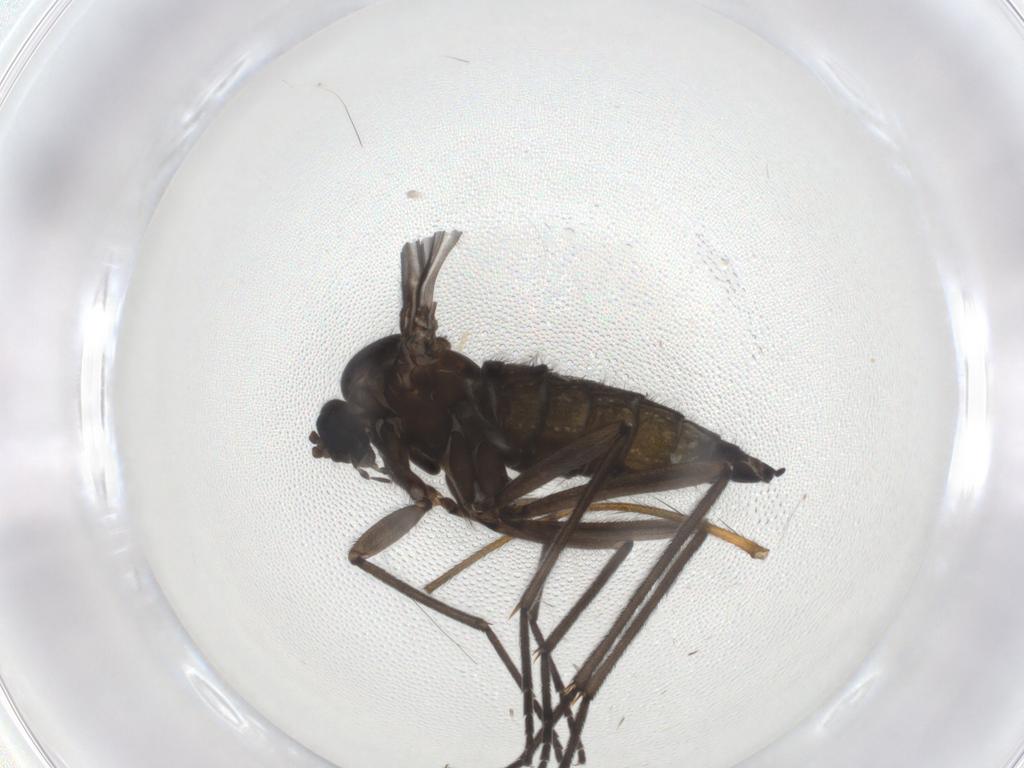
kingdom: Animalia
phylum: Arthropoda
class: Insecta
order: Diptera
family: Sciaridae
